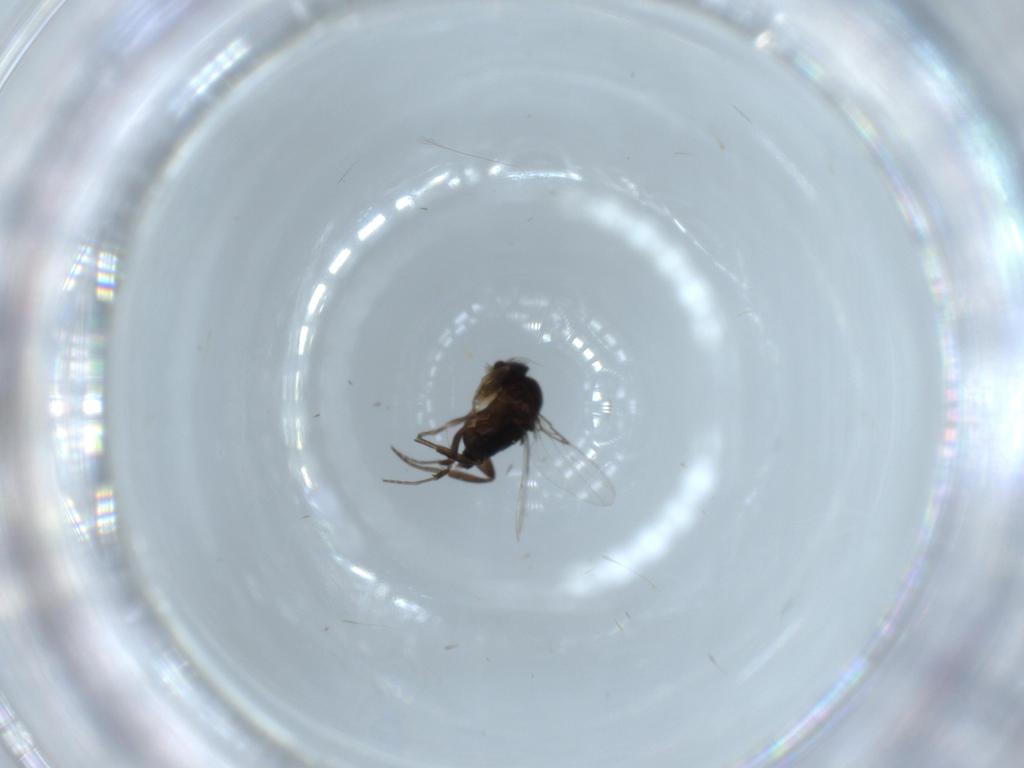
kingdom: Animalia
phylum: Arthropoda
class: Insecta
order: Diptera
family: Phoridae
